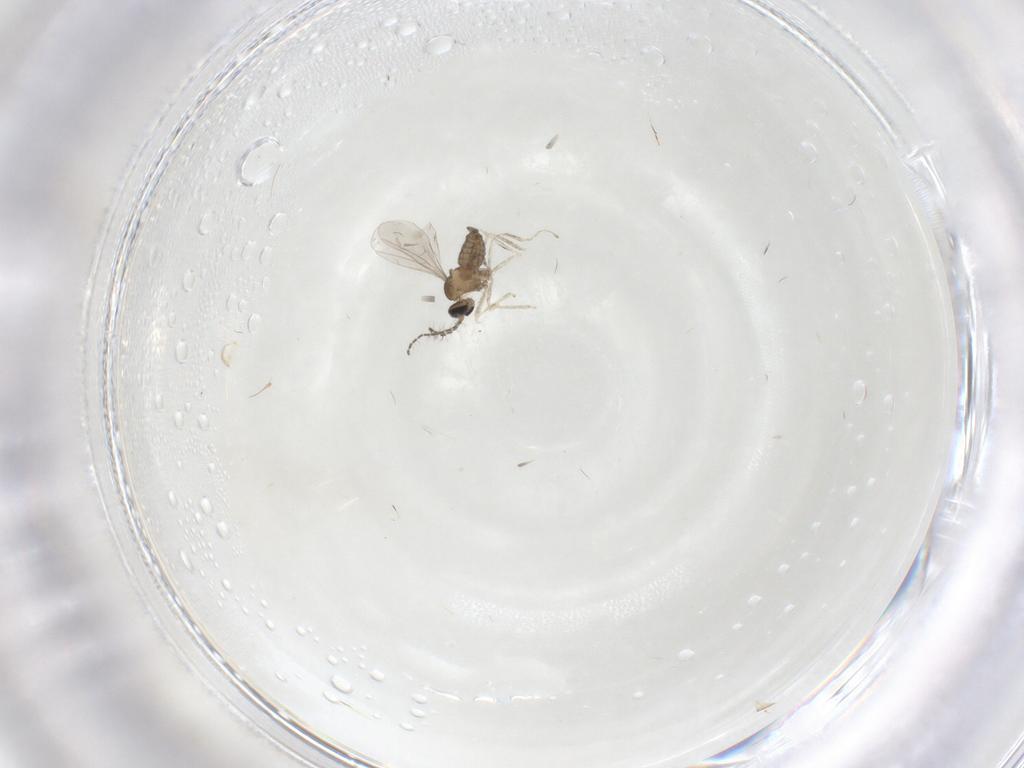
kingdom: Animalia
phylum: Arthropoda
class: Insecta
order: Diptera
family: Cecidomyiidae
